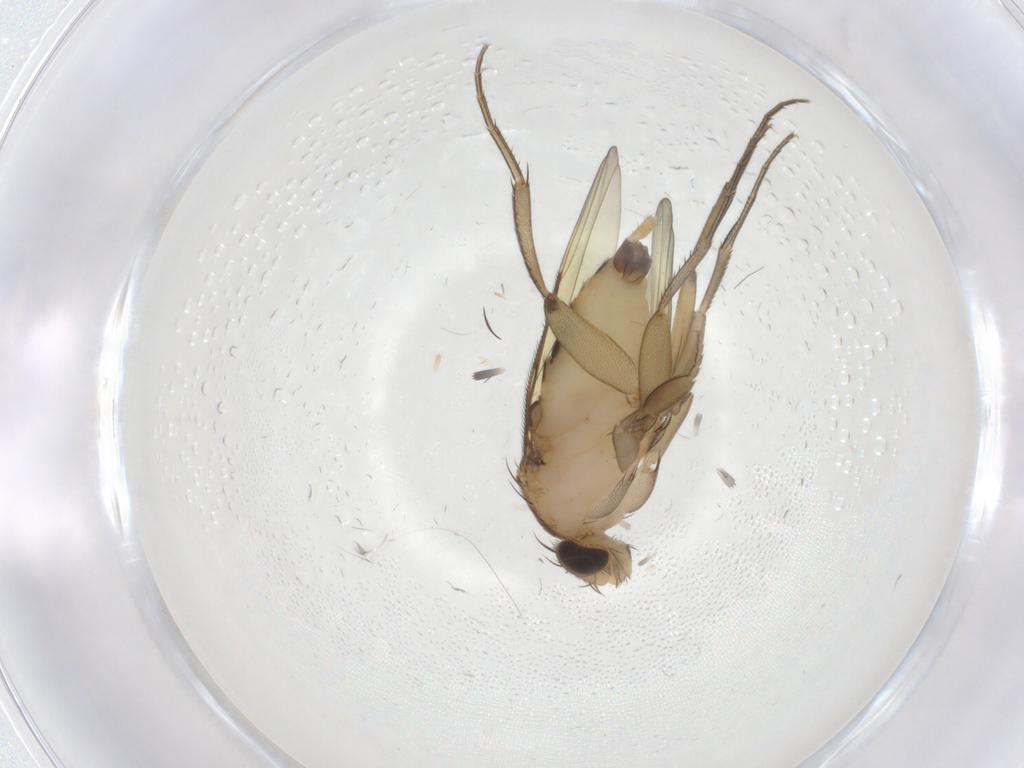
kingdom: Animalia
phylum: Arthropoda
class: Insecta
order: Diptera
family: Phoridae
